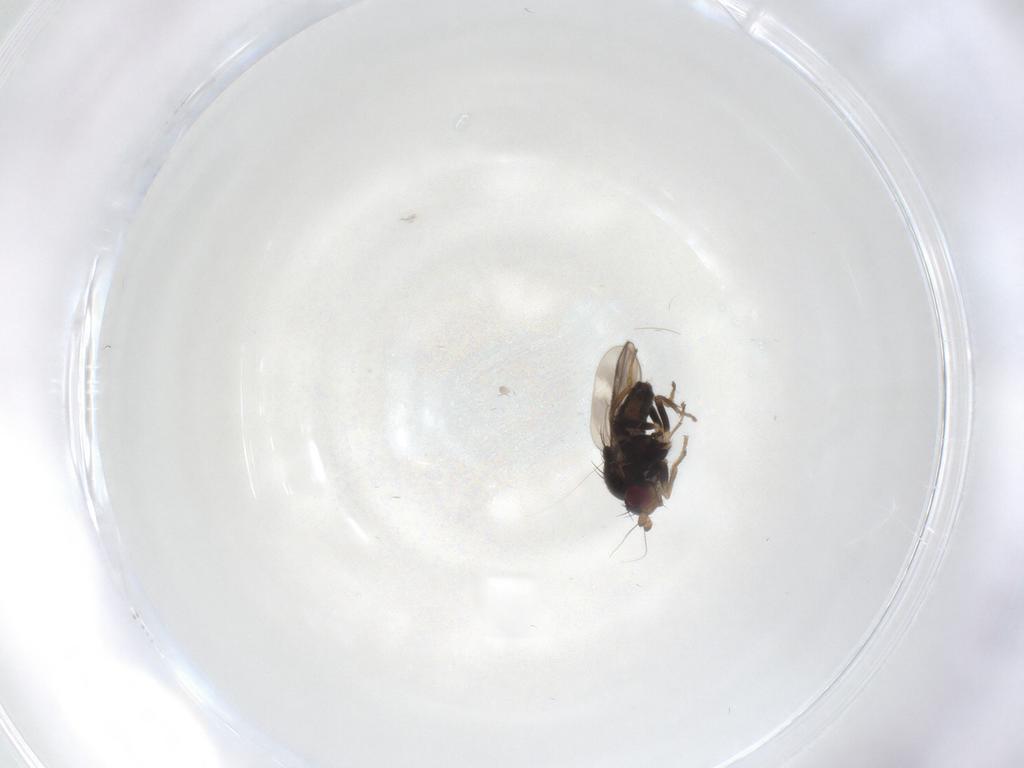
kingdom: Animalia
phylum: Arthropoda
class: Insecta
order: Diptera
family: Sphaeroceridae
